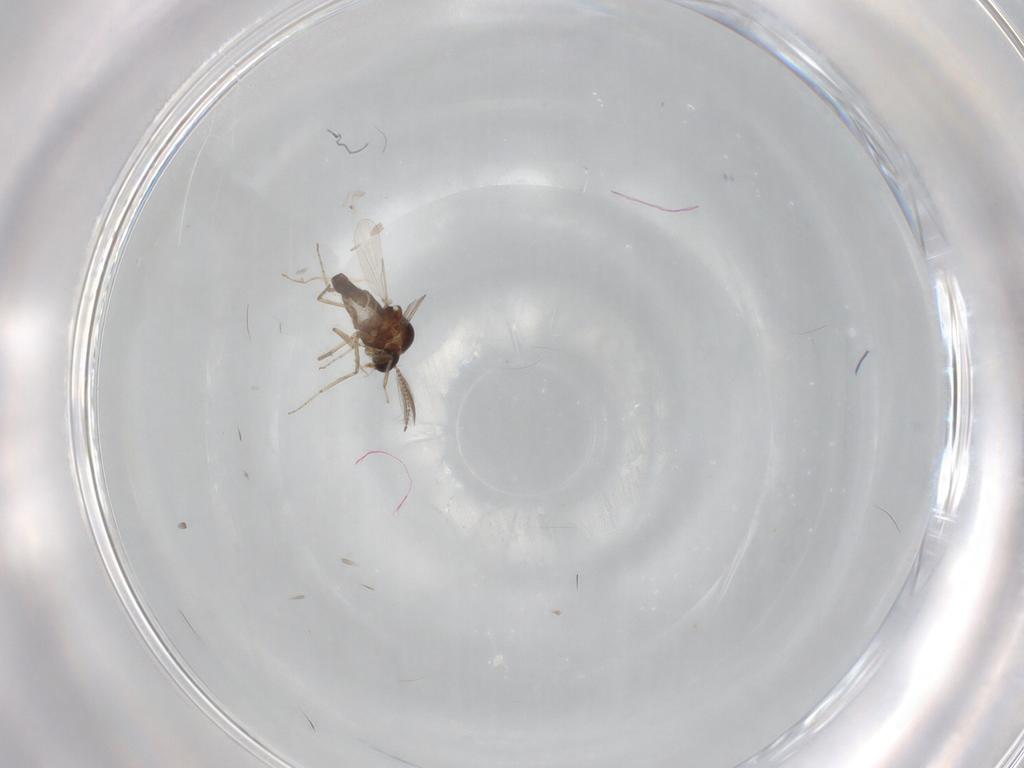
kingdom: Animalia
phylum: Arthropoda
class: Insecta
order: Diptera
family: Ceratopogonidae
